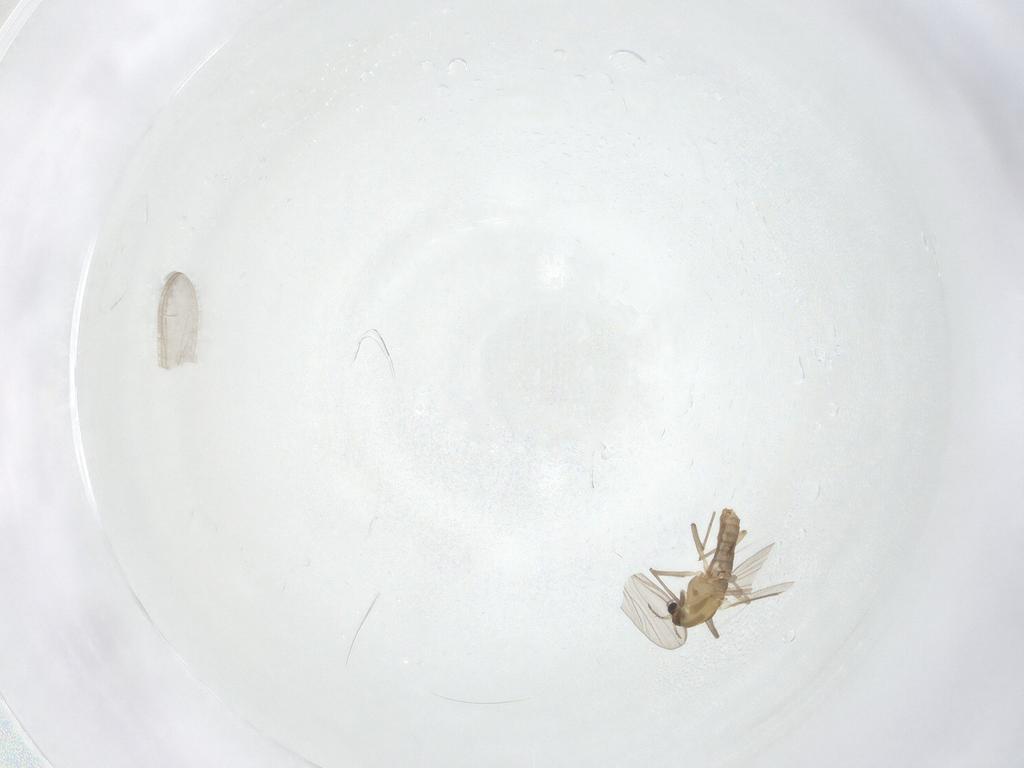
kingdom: Animalia
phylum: Arthropoda
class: Insecta
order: Diptera
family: Chironomidae
